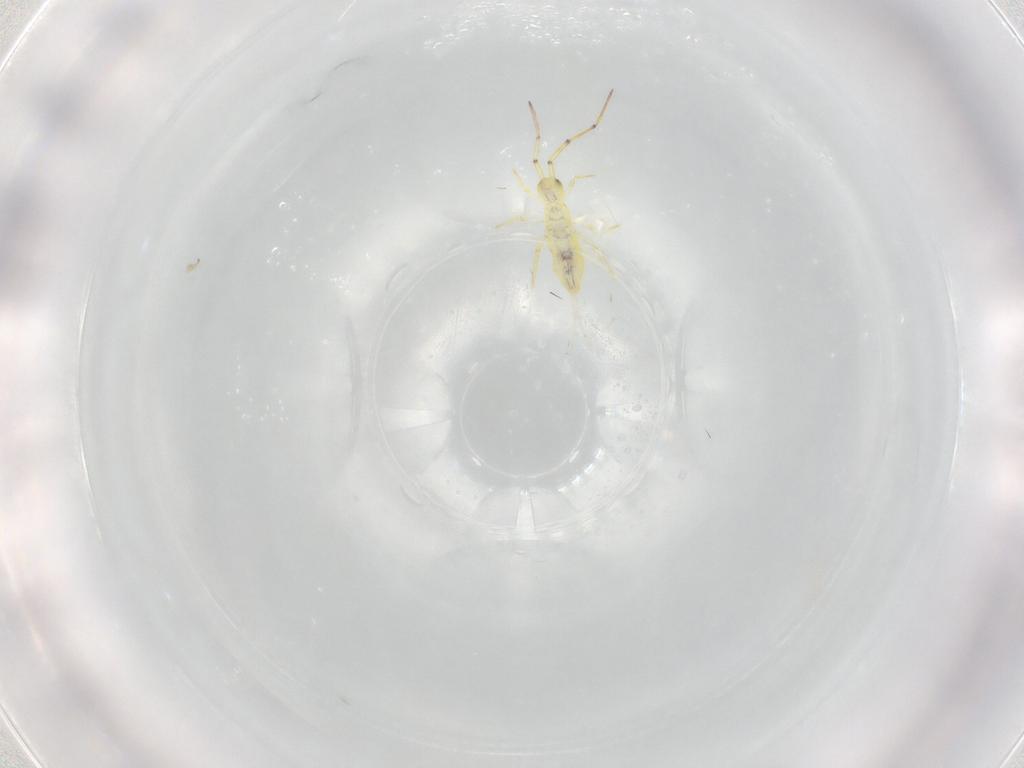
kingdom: Animalia
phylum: Arthropoda
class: Collembola
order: Entomobryomorpha
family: Entomobryidae
